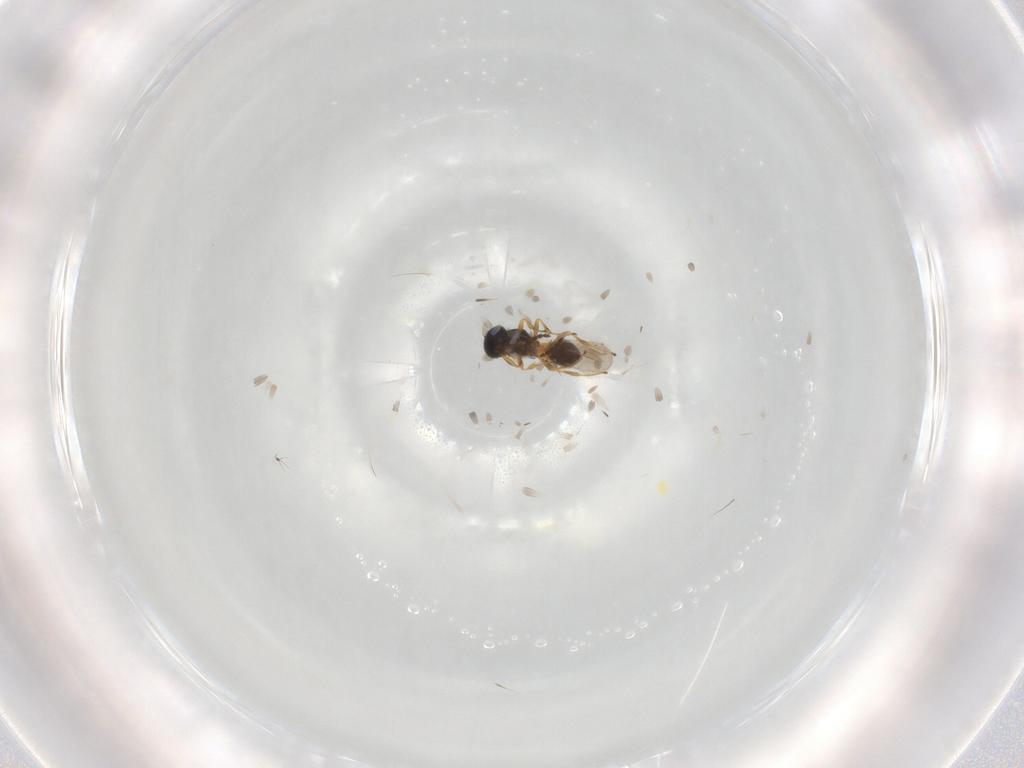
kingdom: Animalia
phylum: Arthropoda
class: Insecta
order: Hymenoptera
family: Platygastridae
